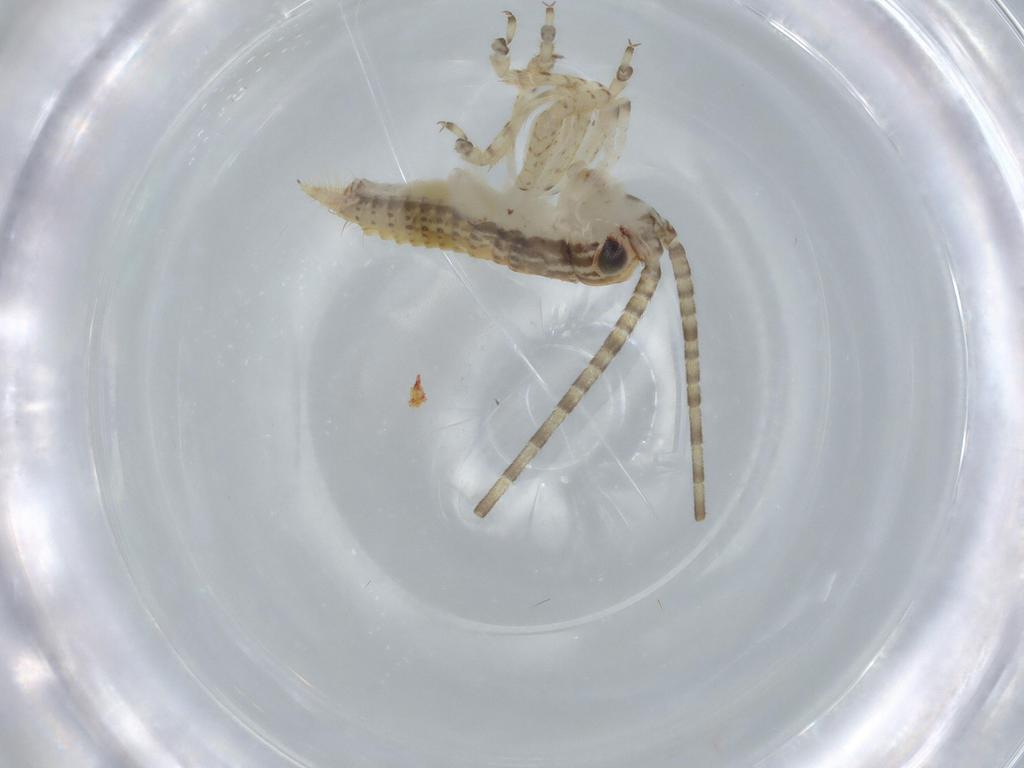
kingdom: Animalia
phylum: Arthropoda
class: Insecta
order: Orthoptera
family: Gryllidae
